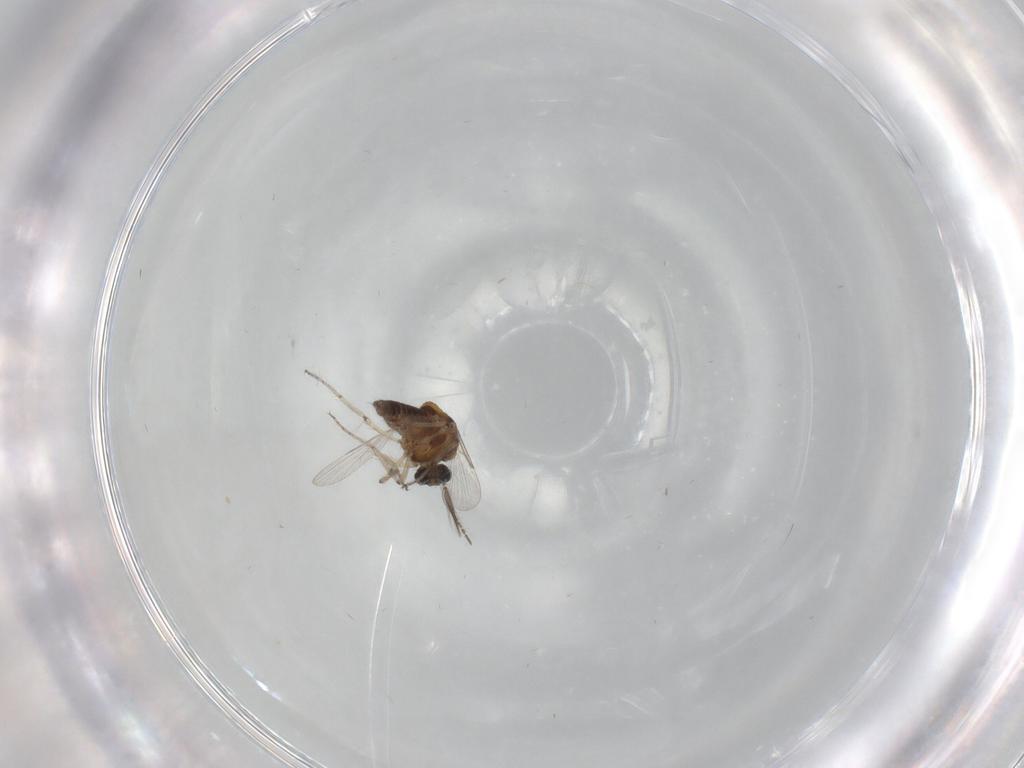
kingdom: Animalia
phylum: Arthropoda
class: Insecta
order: Diptera
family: Ceratopogonidae
